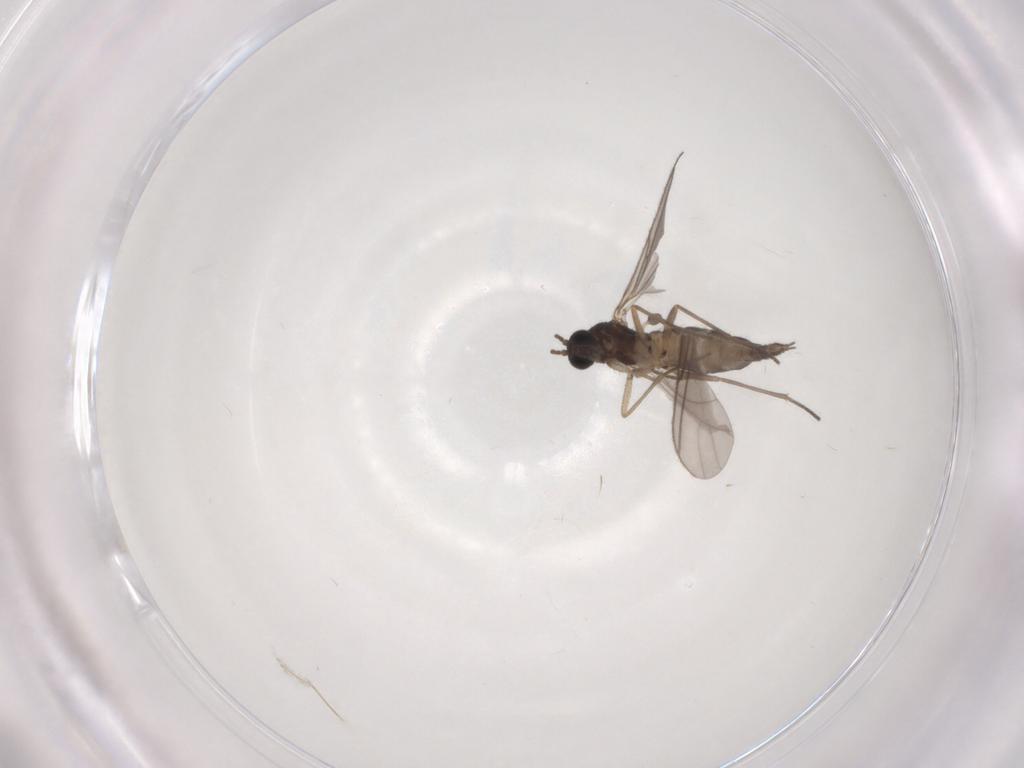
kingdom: Animalia
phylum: Arthropoda
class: Insecta
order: Diptera
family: Sciaridae
